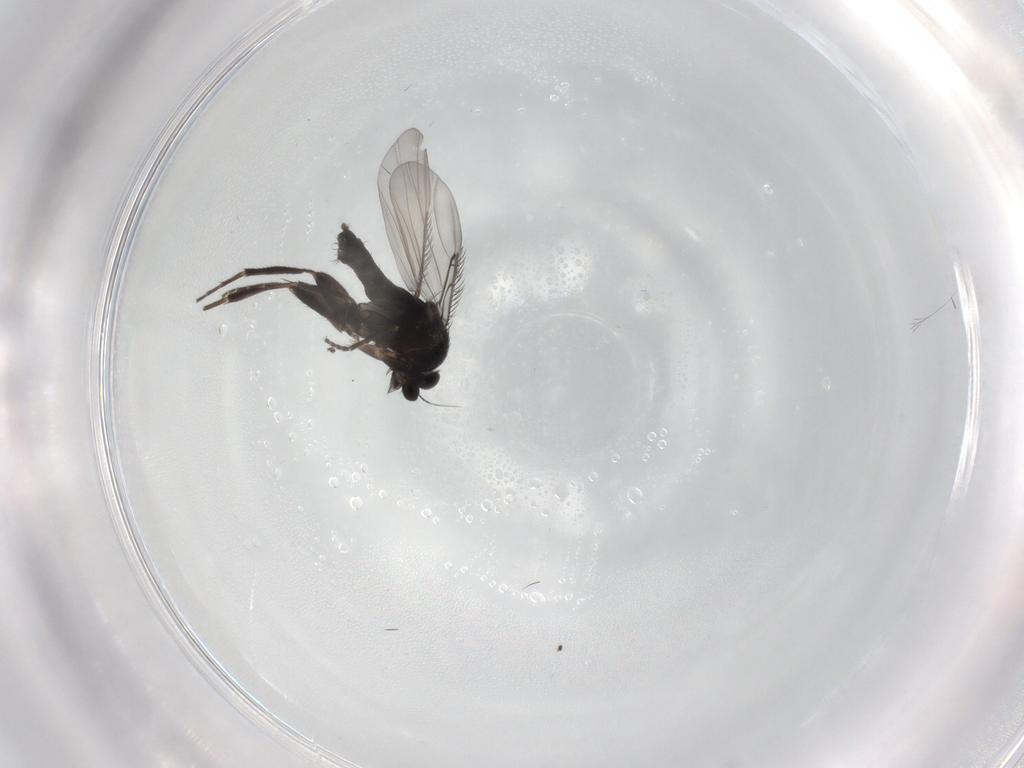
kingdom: Animalia
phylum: Arthropoda
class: Insecta
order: Diptera
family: Phoridae
